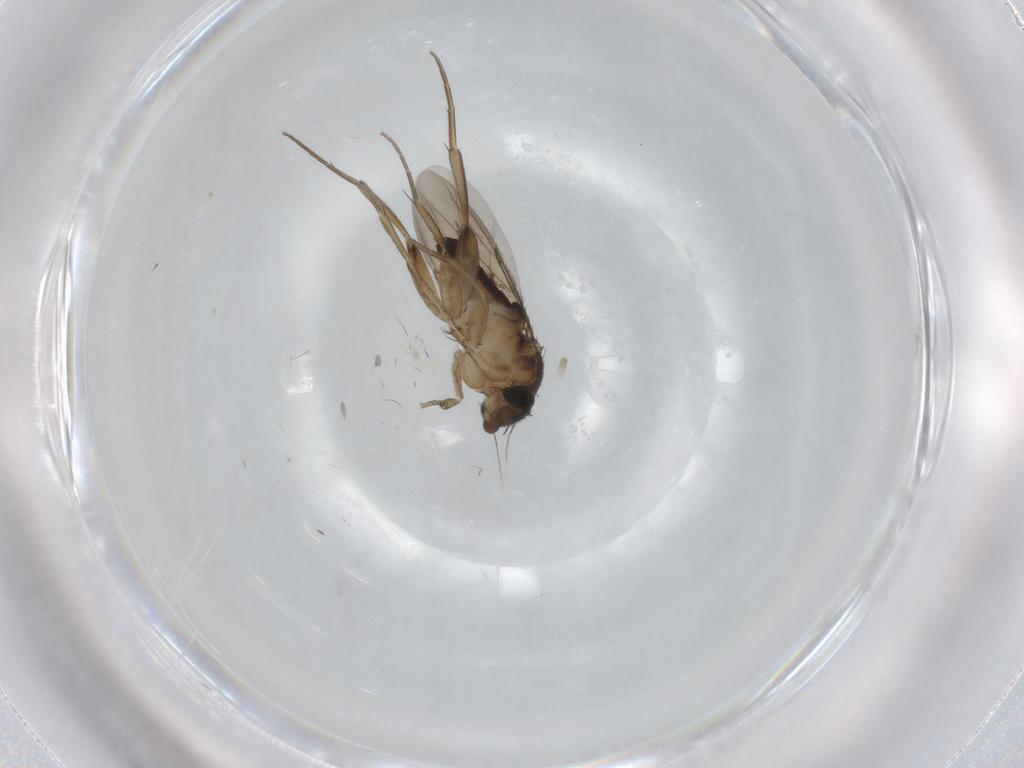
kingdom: Animalia
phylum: Arthropoda
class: Insecta
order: Diptera
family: Phoridae
